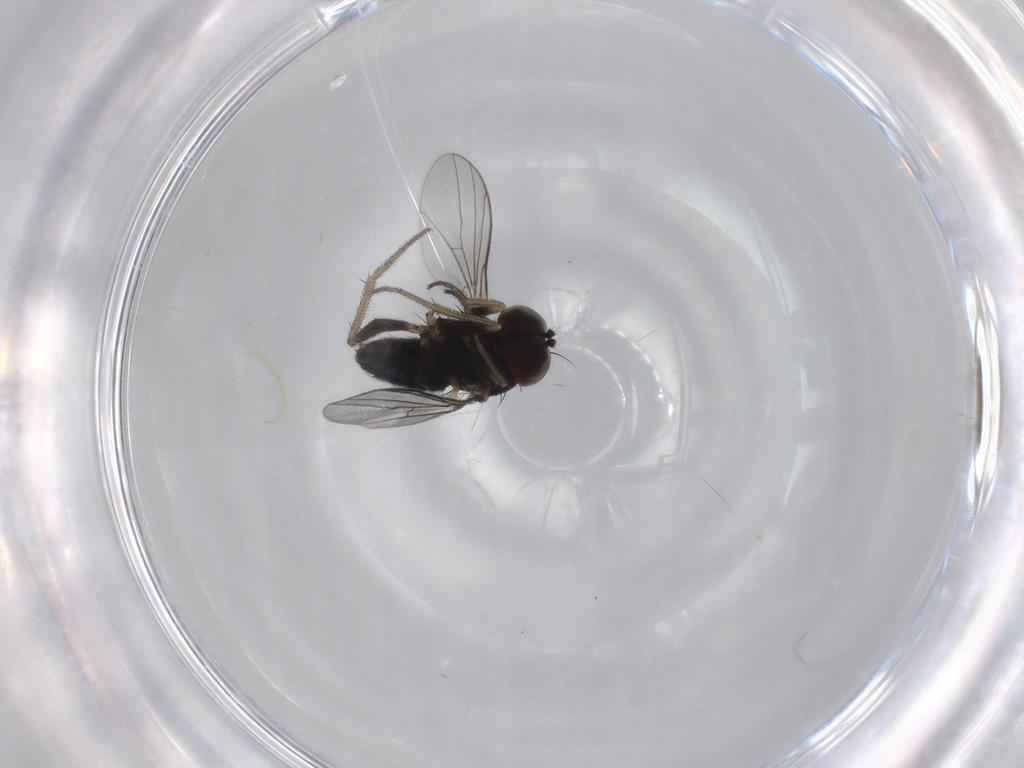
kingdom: Animalia
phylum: Arthropoda
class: Insecta
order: Diptera
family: Dolichopodidae
